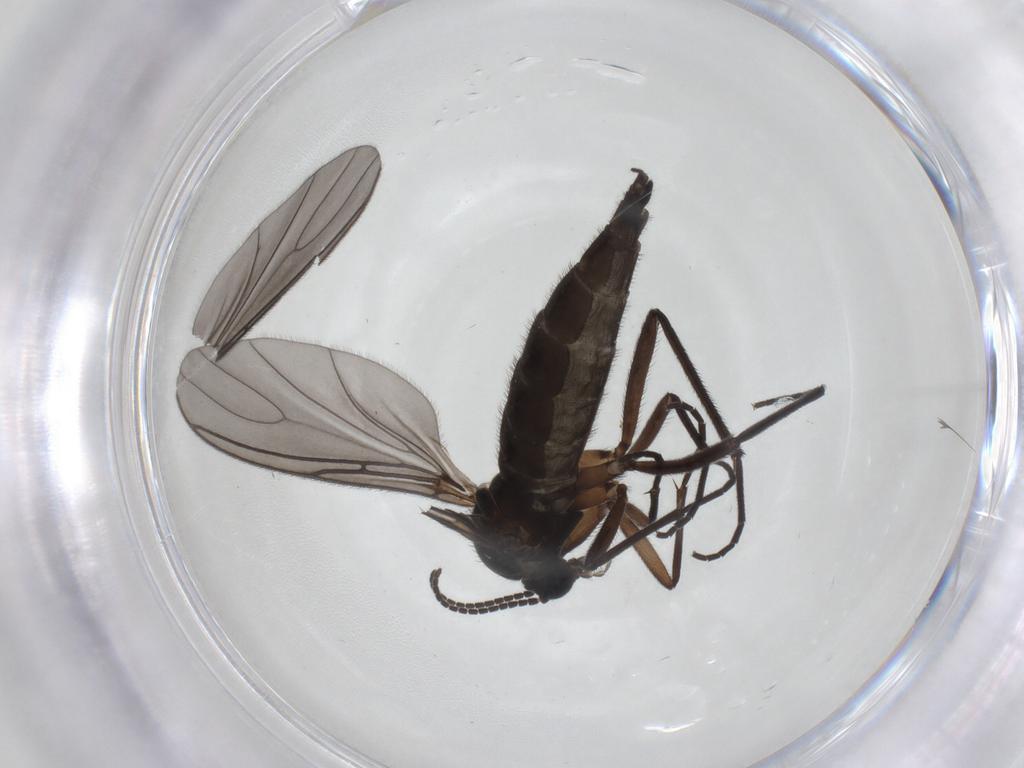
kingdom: Animalia
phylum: Arthropoda
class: Insecta
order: Diptera
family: Sciaridae
